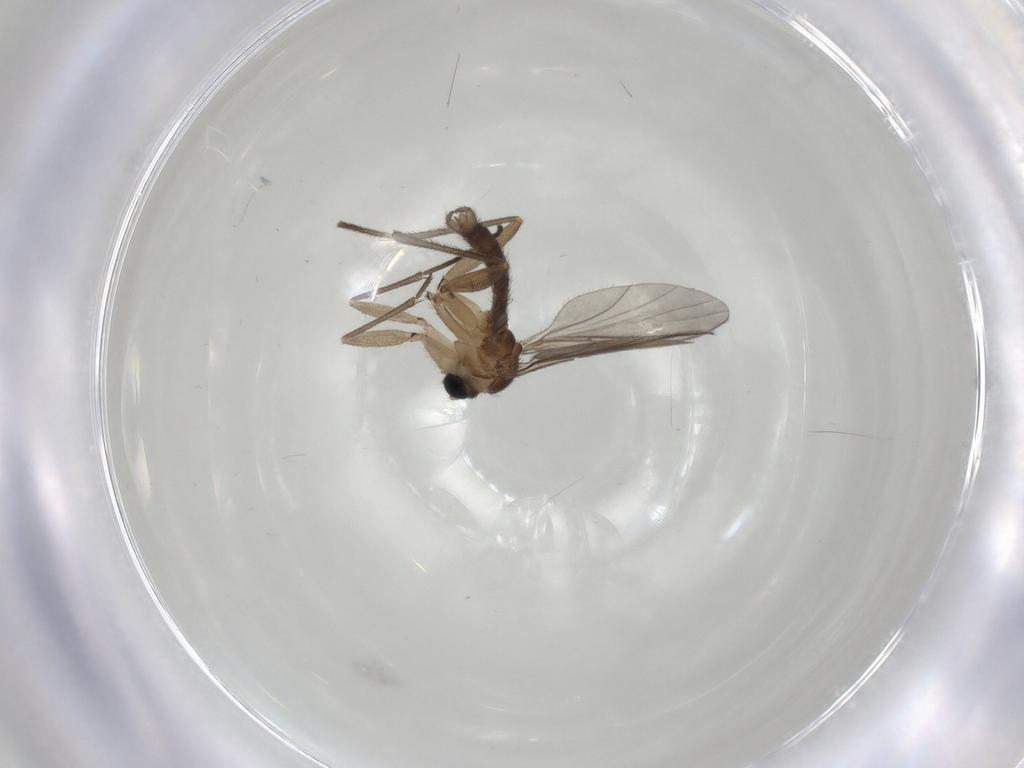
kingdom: Animalia
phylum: Arthropoda
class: Insecta
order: Diptera
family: Sciaridae
